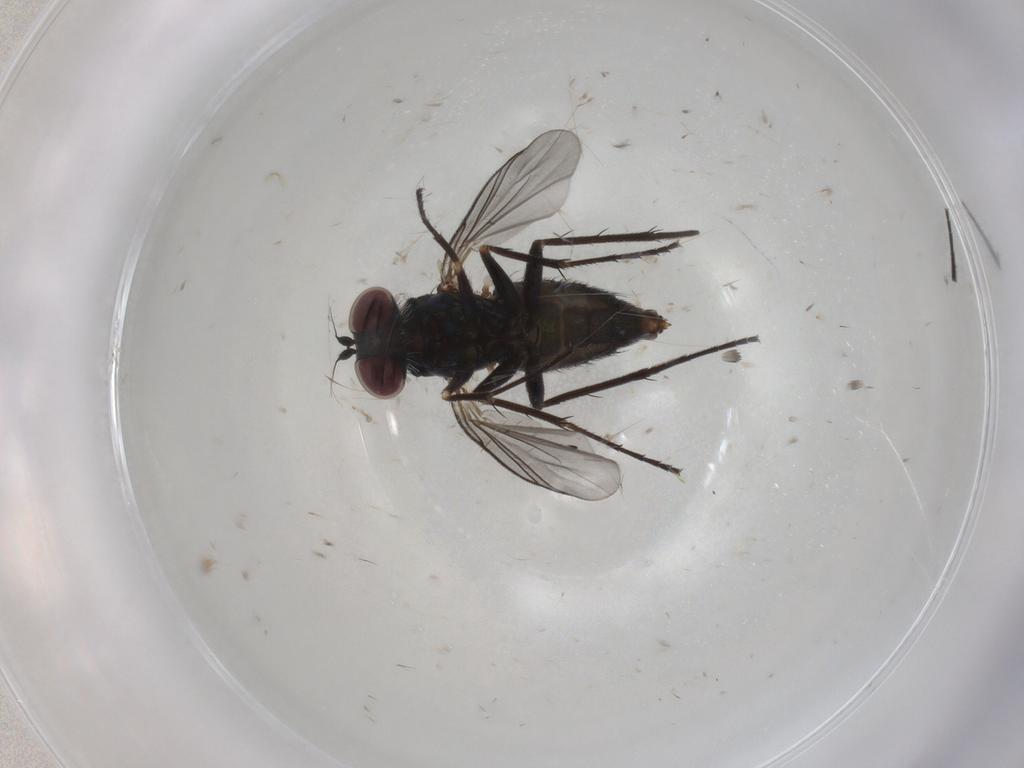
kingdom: Animalia
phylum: Arthropoda
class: Insecta
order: Diptera
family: Dolichopodidae
